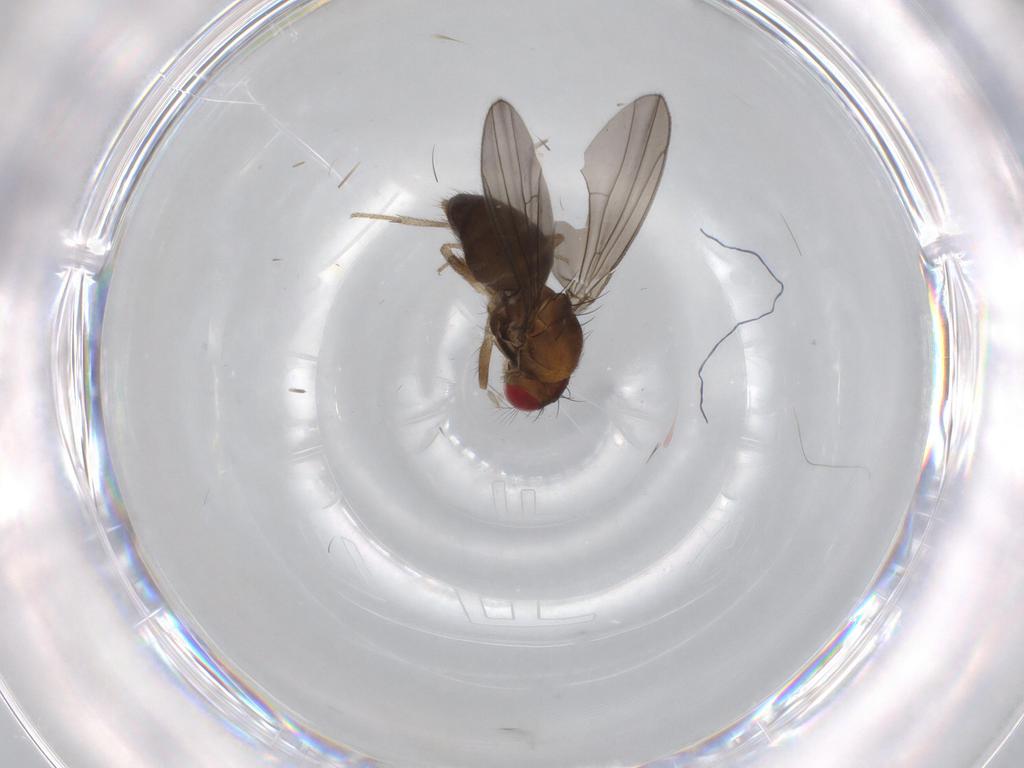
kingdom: Animalia
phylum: Arthropoda
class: Insecta
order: Diptera
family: Drosophilidae
